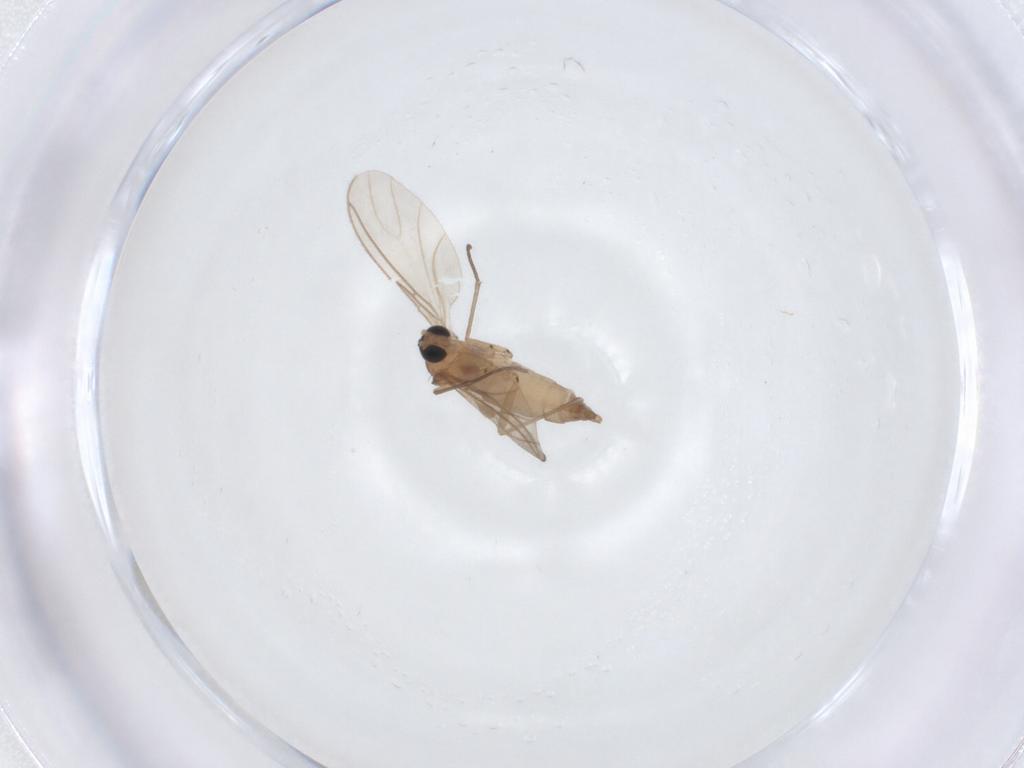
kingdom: Animalia
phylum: Arthropoda
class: Insecta
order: Diptera
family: Sciaridae
